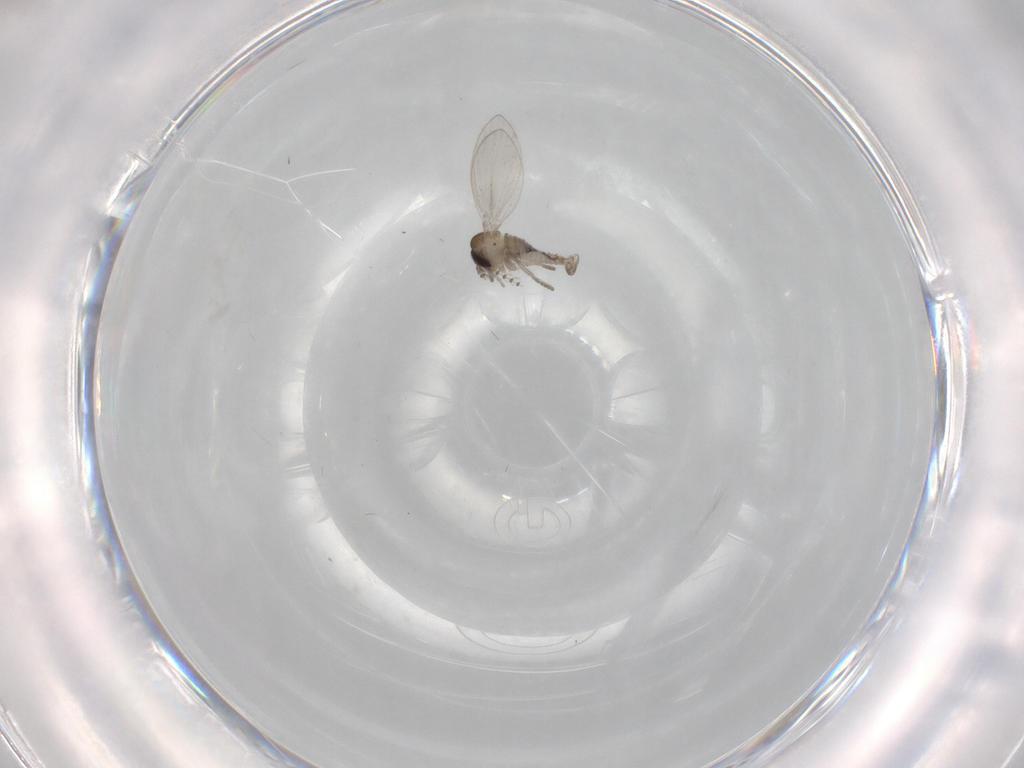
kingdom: Animalia
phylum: Arthropoda
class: Insecta
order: Diptera
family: Psychodidae
